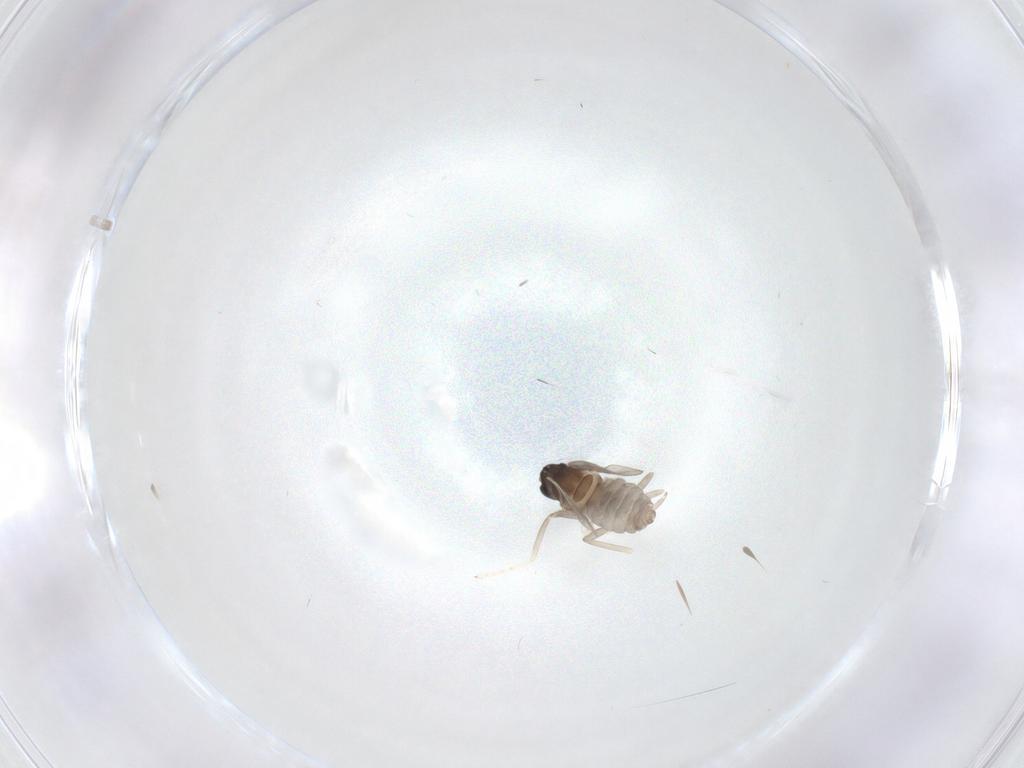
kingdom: Animalia
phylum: Arthropoda
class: Insecta
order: Diptera
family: Cecidomyiidae
